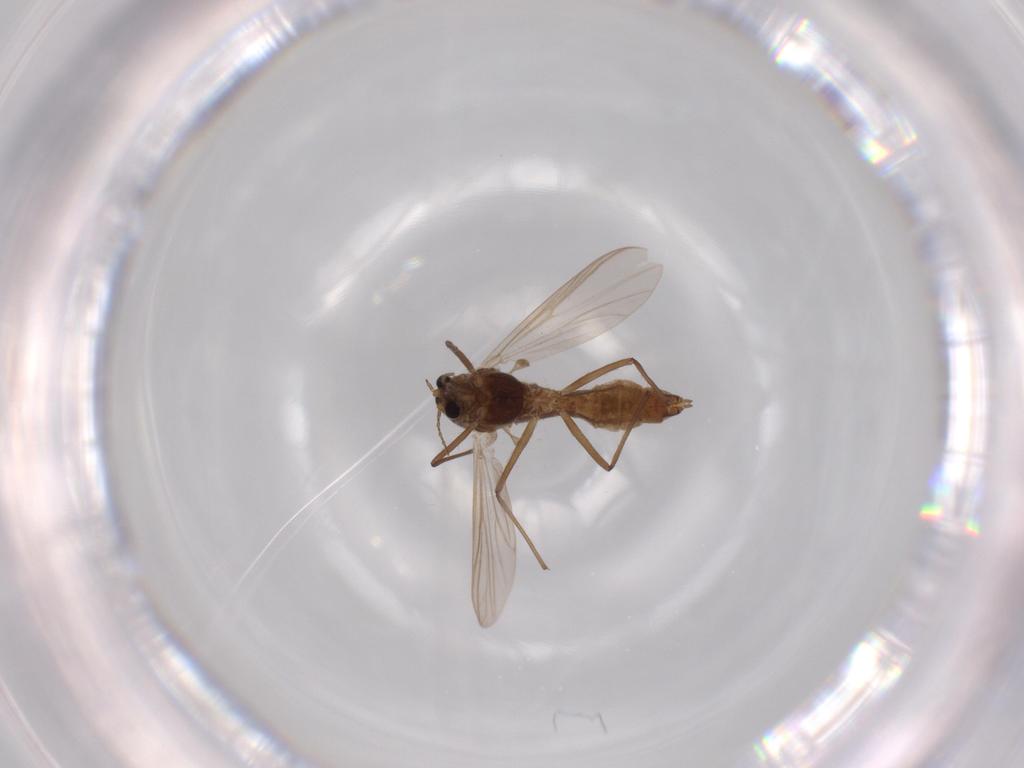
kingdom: Animalia
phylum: Arthropoda
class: Insecta
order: Diptera
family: Chironomidae
